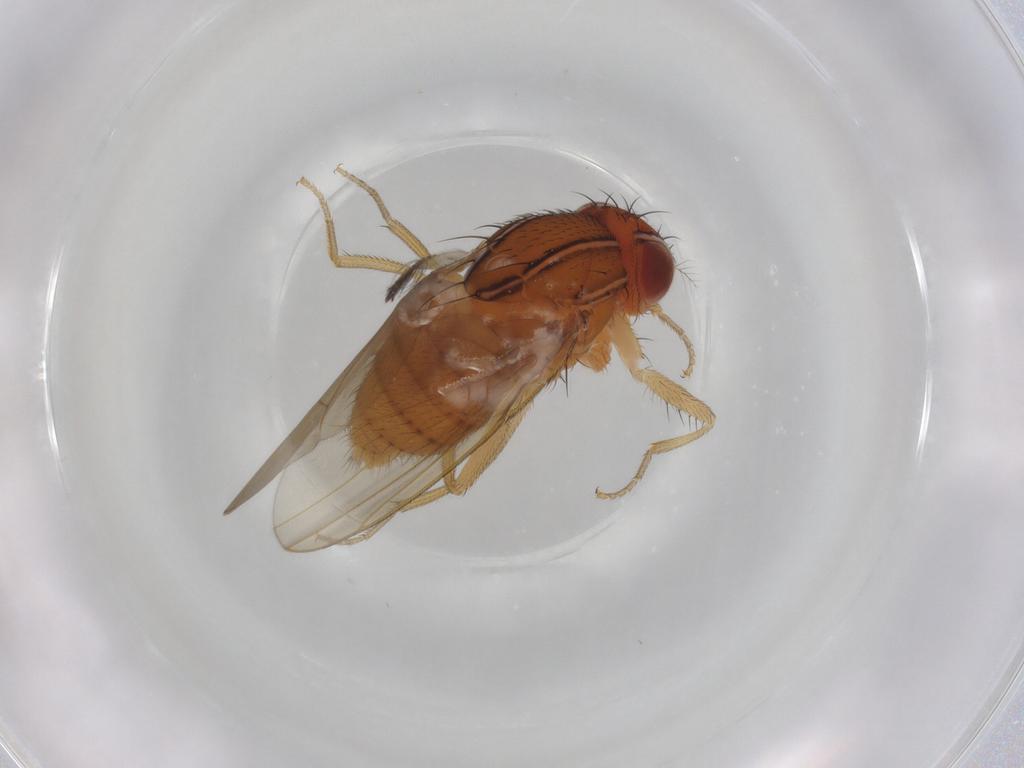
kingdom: Animalia
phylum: Arthropoda
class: Insecta
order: Diptera
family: Drosophilidae
